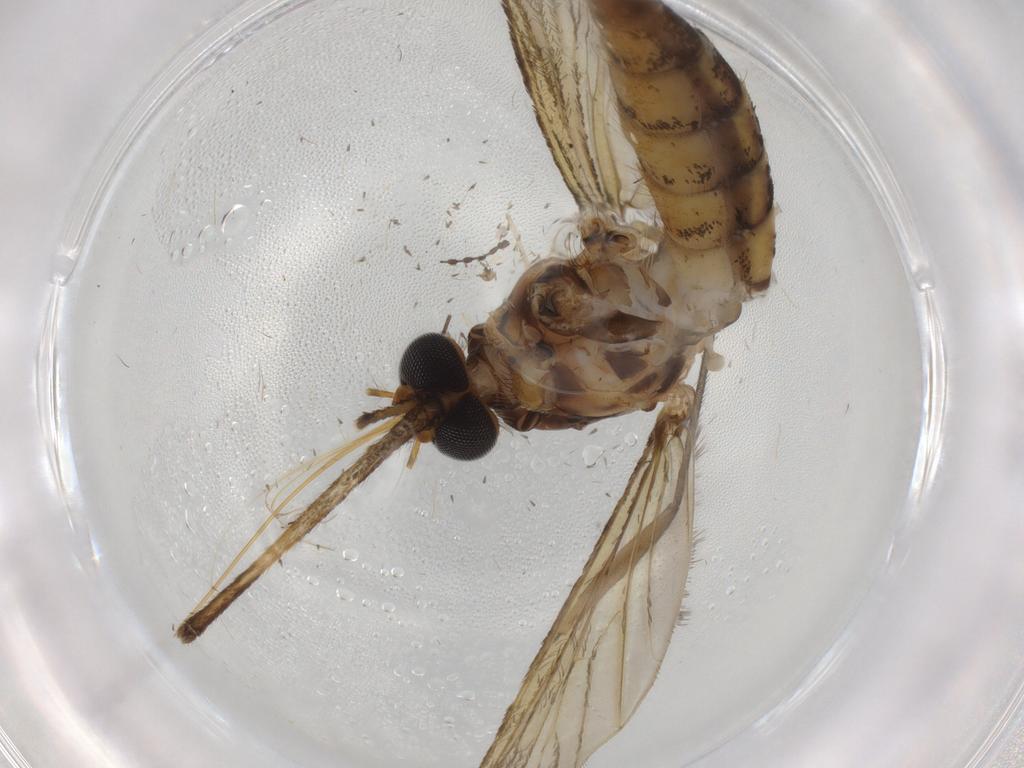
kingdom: Animalia
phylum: Arthropoda
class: Insecta
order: Diptera
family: Culicidae
